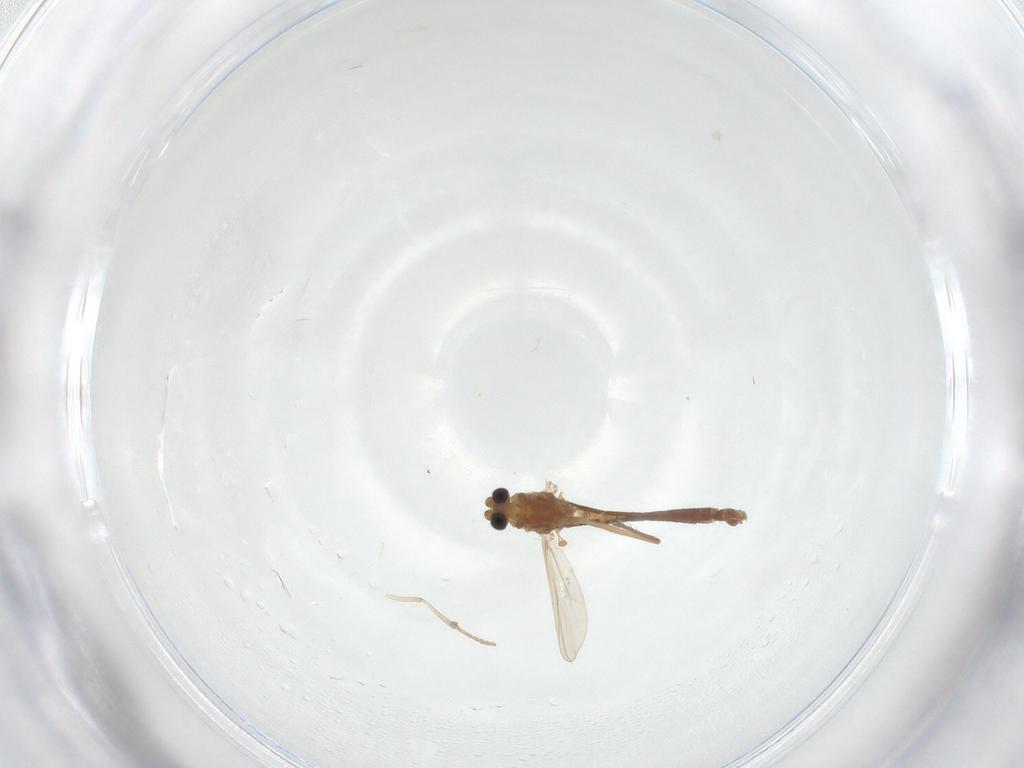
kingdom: Animalia
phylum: Arthropoda
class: Insecta
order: Diptera
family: Chironomidae
